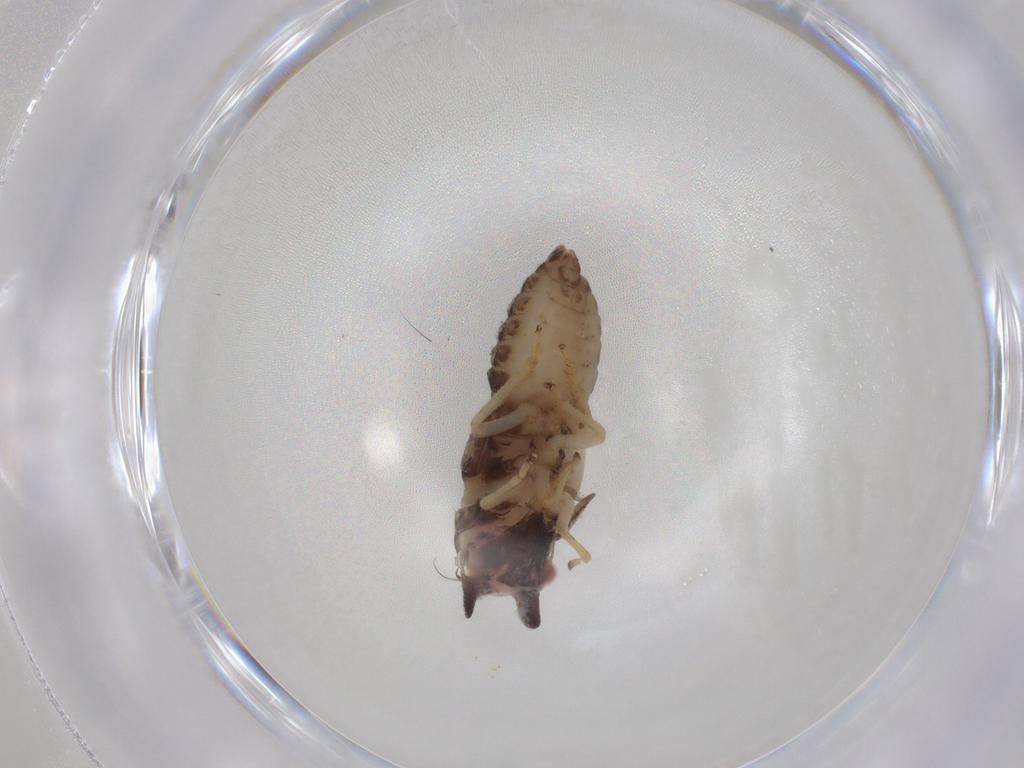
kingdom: Animalia
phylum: Arthropoda
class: Insecta
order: Hemiptera
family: Cicadellidae
